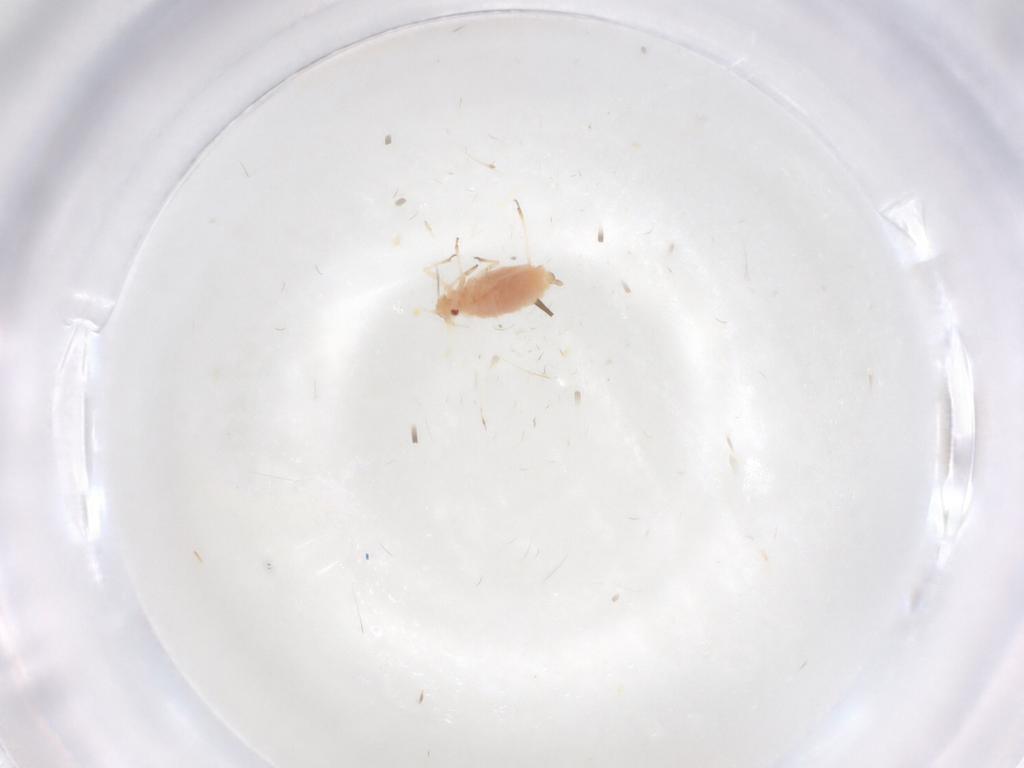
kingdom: Animalia
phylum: Arthropoda
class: Insecta
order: Hemiptera
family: Aphididae
